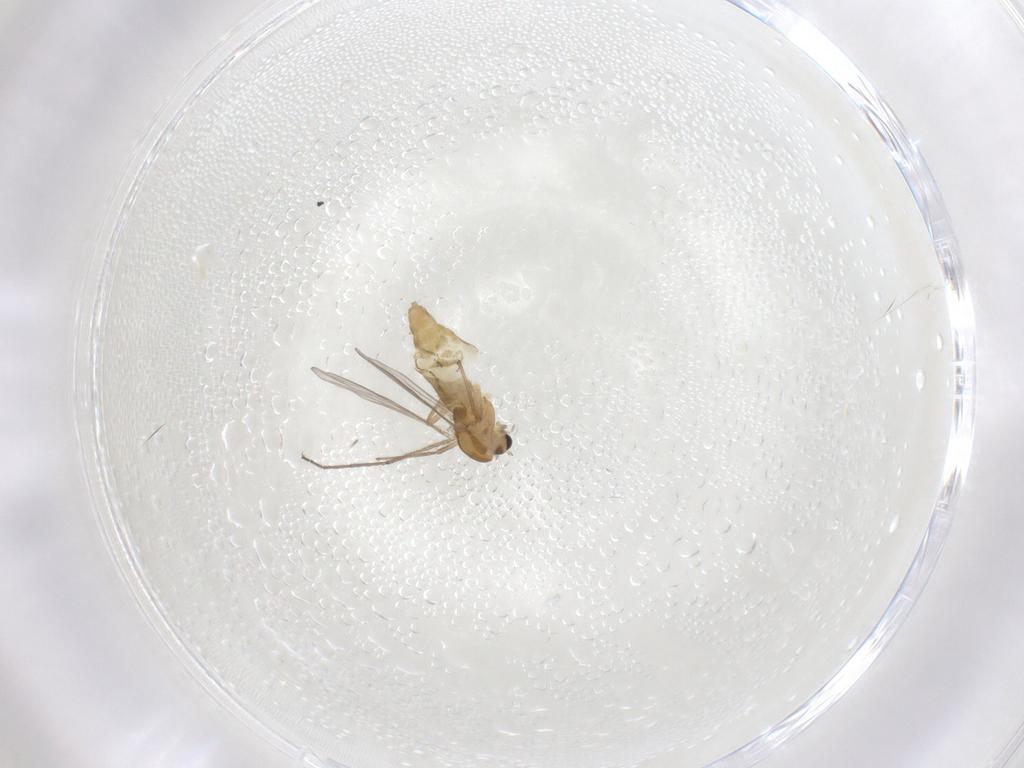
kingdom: Animalia
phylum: Arthropoda
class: Insecta
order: Diptera
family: Chironomidae
